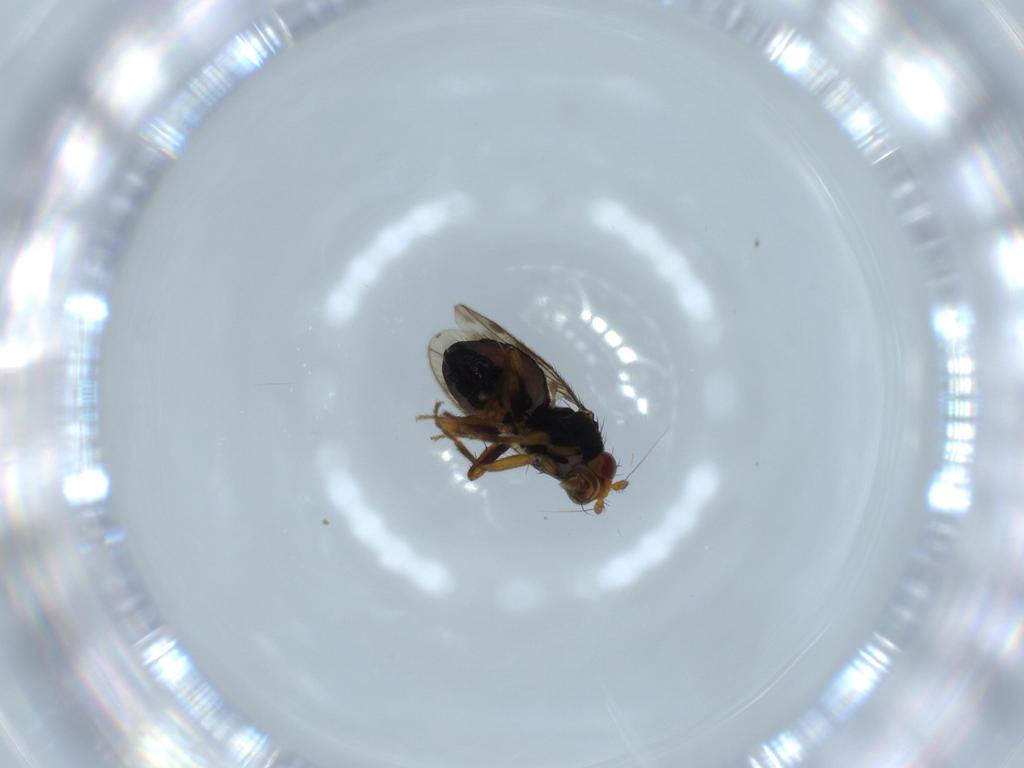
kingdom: Animalia
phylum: Arthropoda
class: Insecta
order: Diptera
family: Sphaeroceridae
